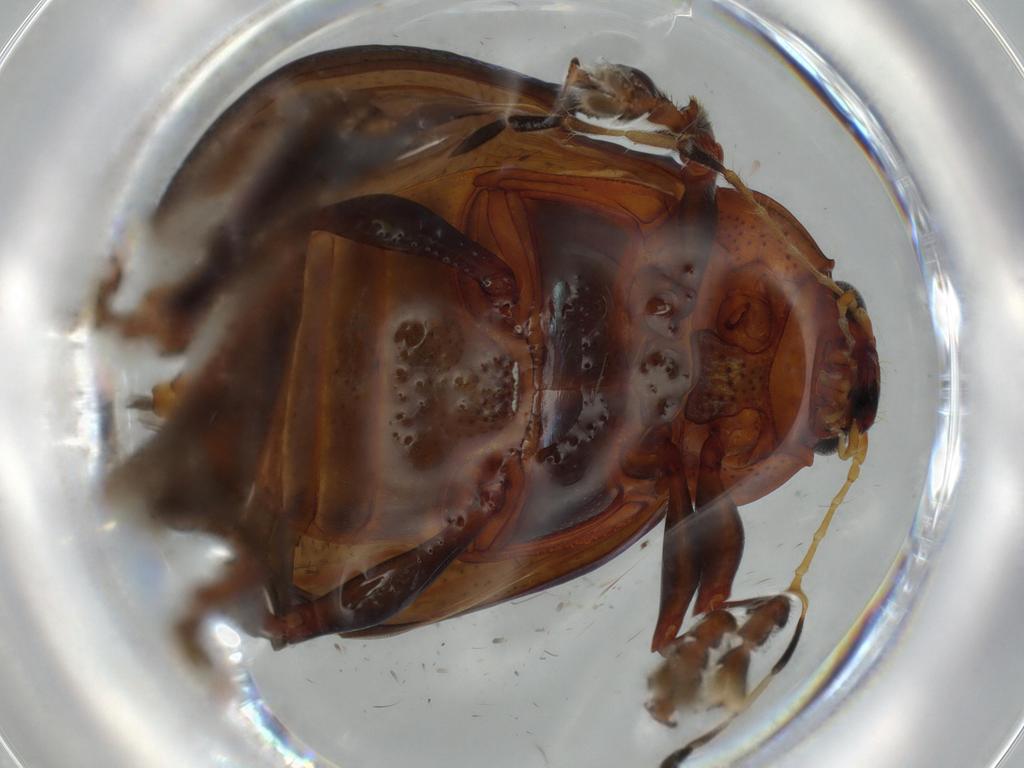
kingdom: Animalia
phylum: Arthropoda
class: Insecta
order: Coleoptera
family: Chrysomelidae
